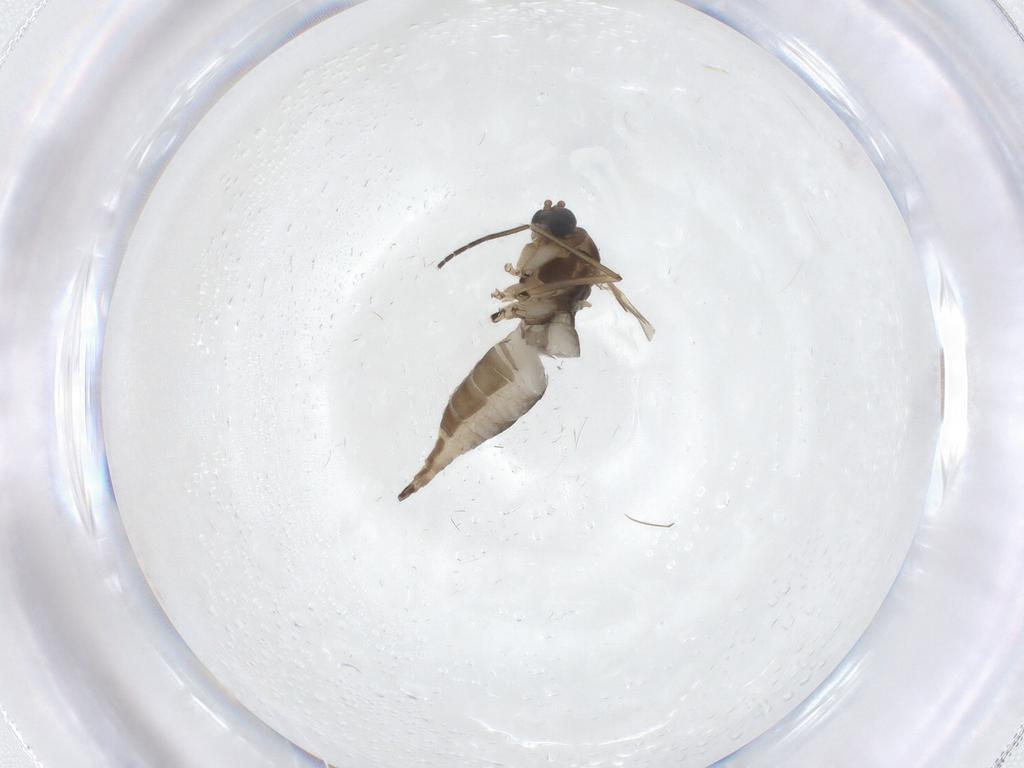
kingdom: Animalia
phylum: Arthropoda
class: Insecta
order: Diptera
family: Sciaridae
